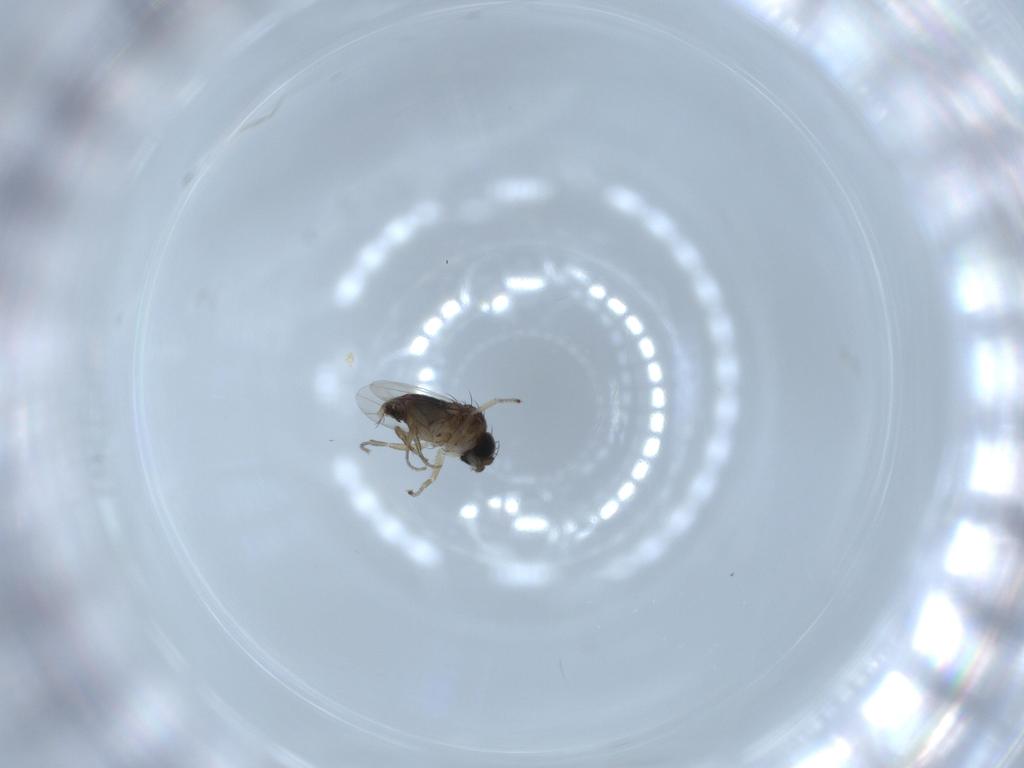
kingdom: Animalia
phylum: Arthropoda
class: Insecta
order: Diptera
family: Phoridae
